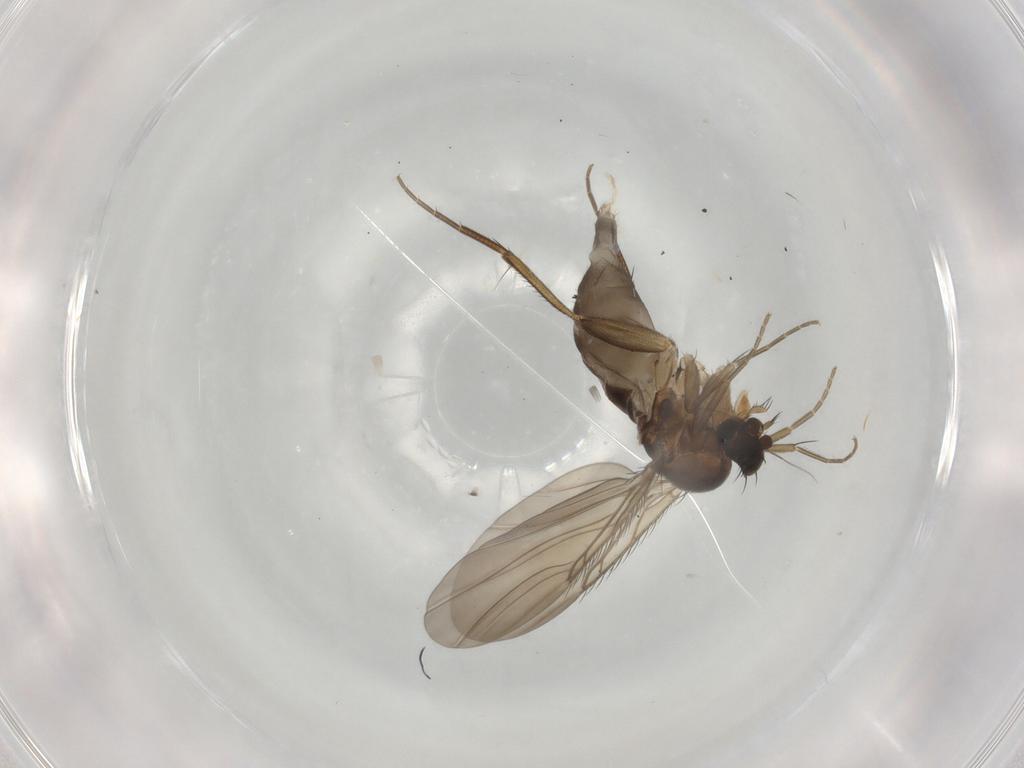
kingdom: Animalia
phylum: Arthropoda
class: Insecta
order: Diptera
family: Phoridae
